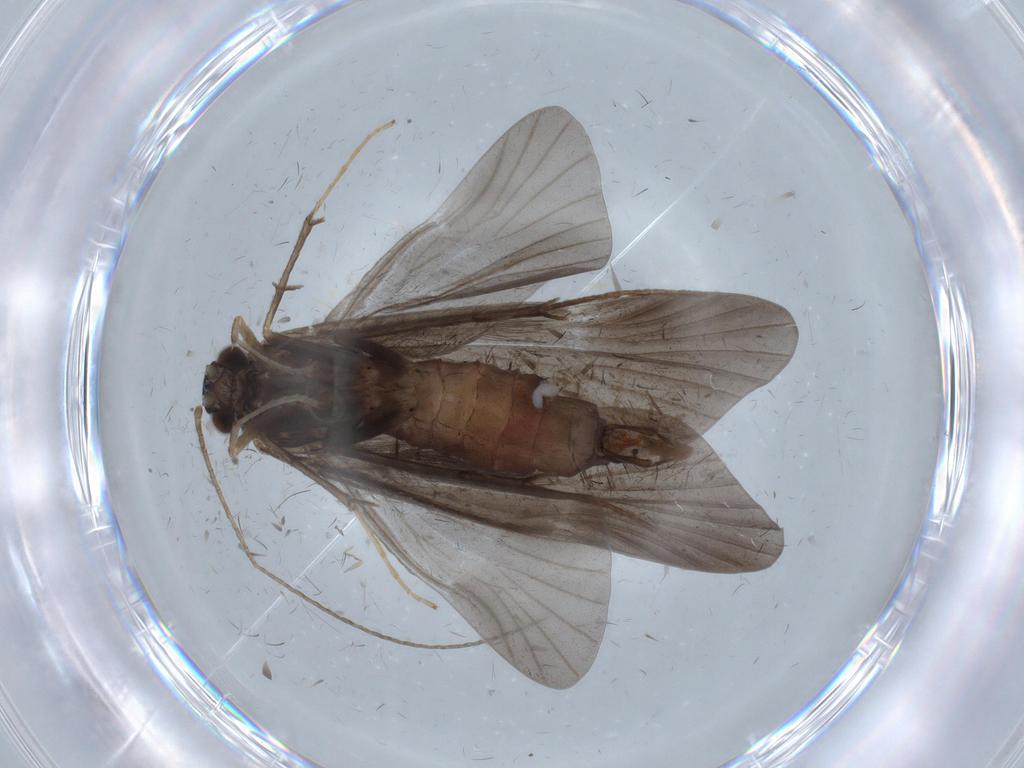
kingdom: Animalia
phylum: Arthropoda
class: Insecta
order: Trichoptera
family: Hydropsychidae
